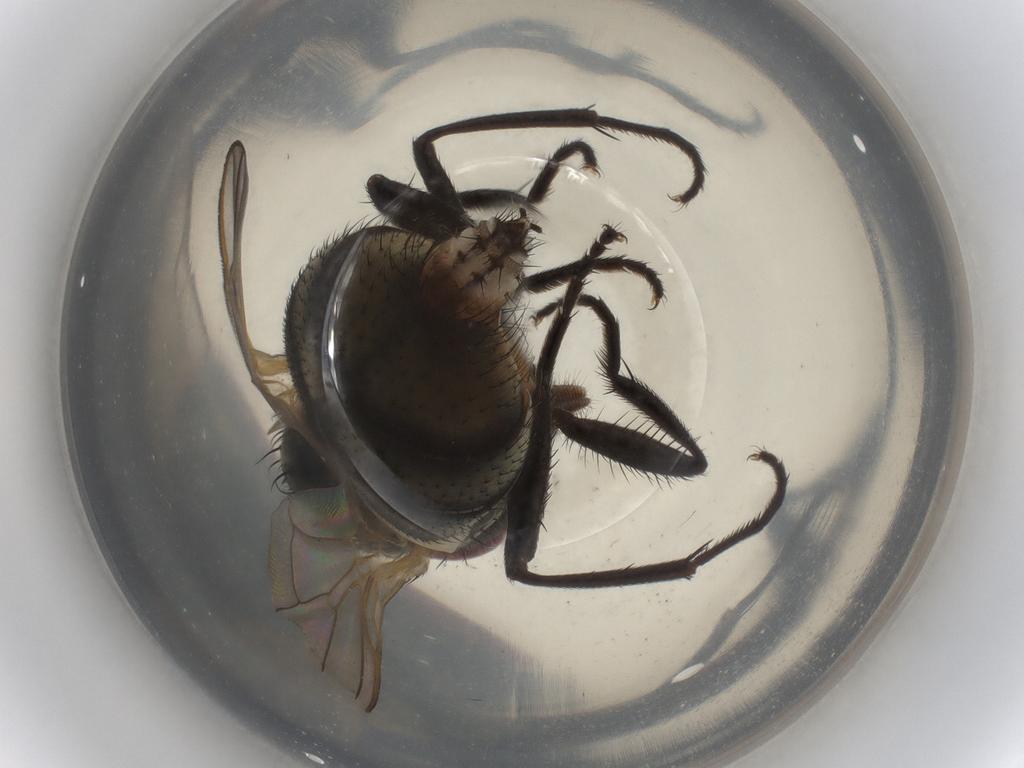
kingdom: Animalia
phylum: Arthropoda
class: Insecta
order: Diptera
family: Muscidae
